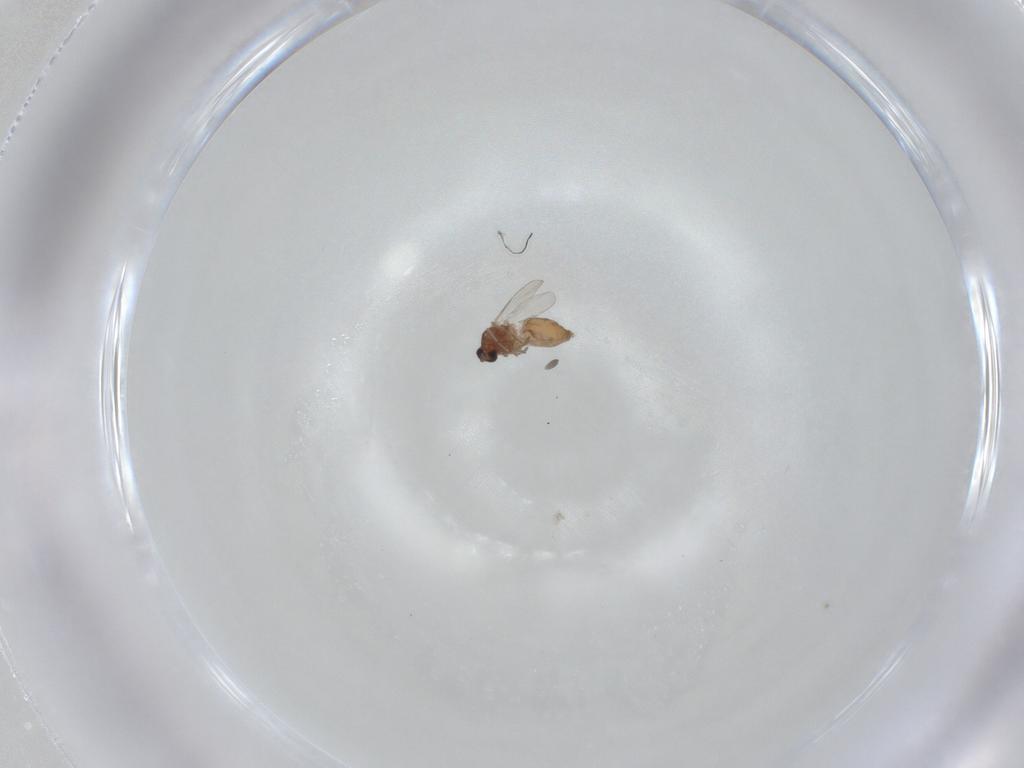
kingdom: Animalia
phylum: Arthropoda
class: Insecta
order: Diptera
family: Ceratopogonidae
